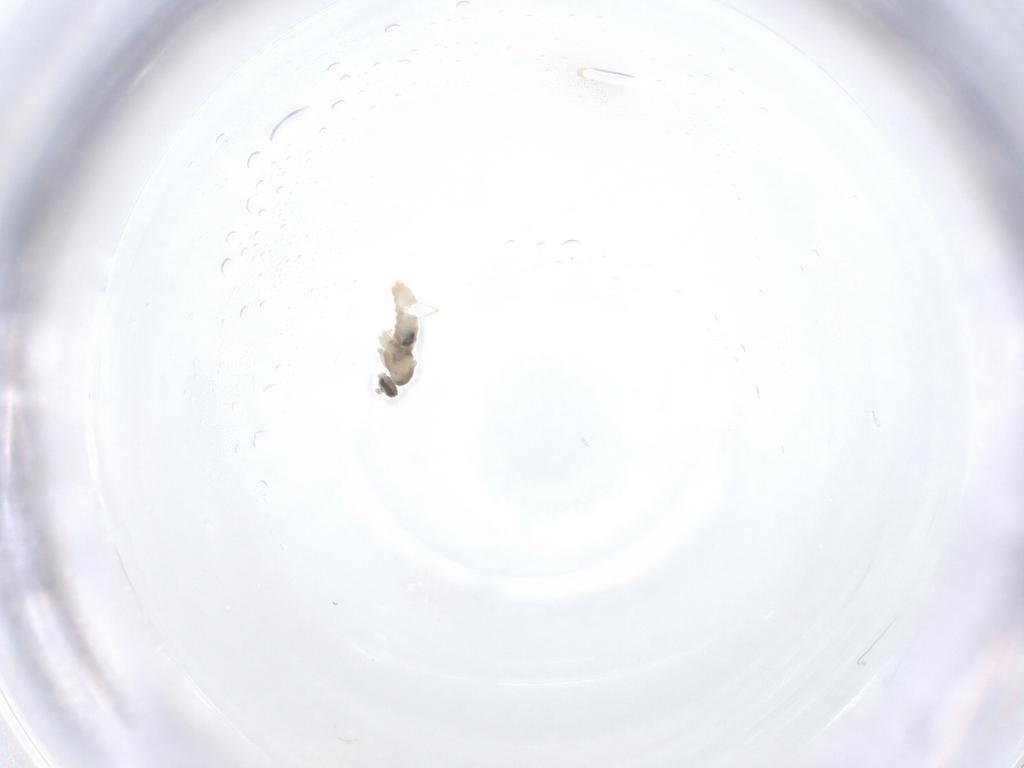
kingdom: Animalia
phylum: Arthropoda
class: Insecta
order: Diptera
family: Cecidomyiidae
